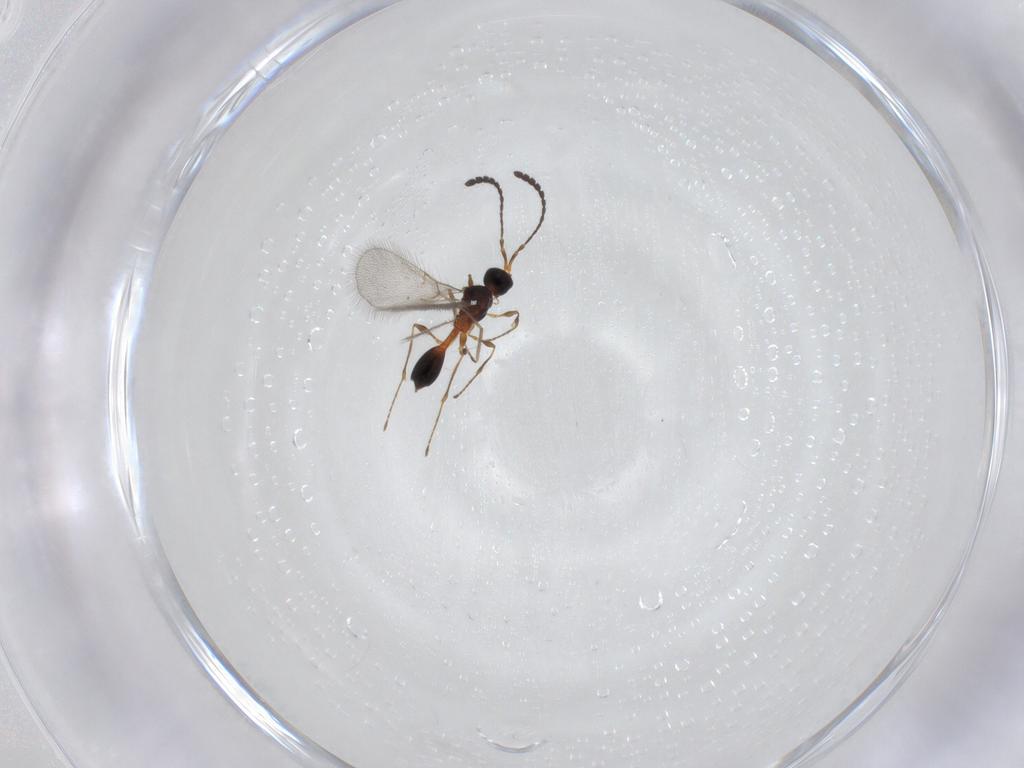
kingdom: Animalia
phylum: Arthropoda
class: Insecta
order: Hymenoptera
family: Diapriidae
